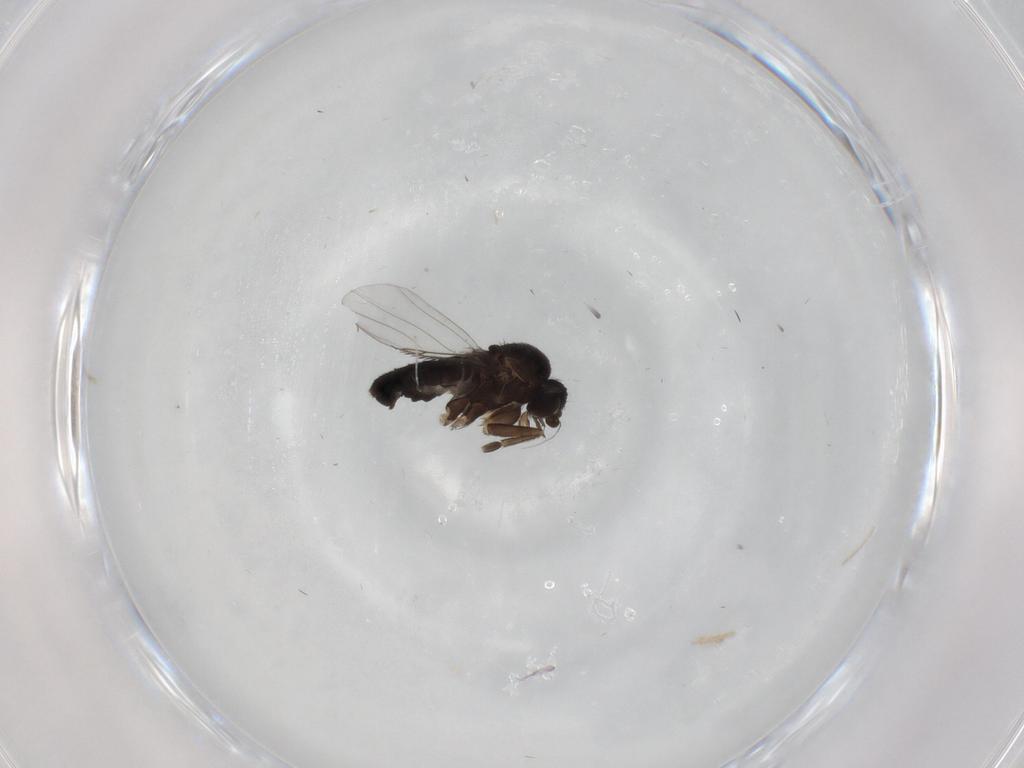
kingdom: Animalia
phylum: Arthropoda
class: Insecta
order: Diptera
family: Phoridae
